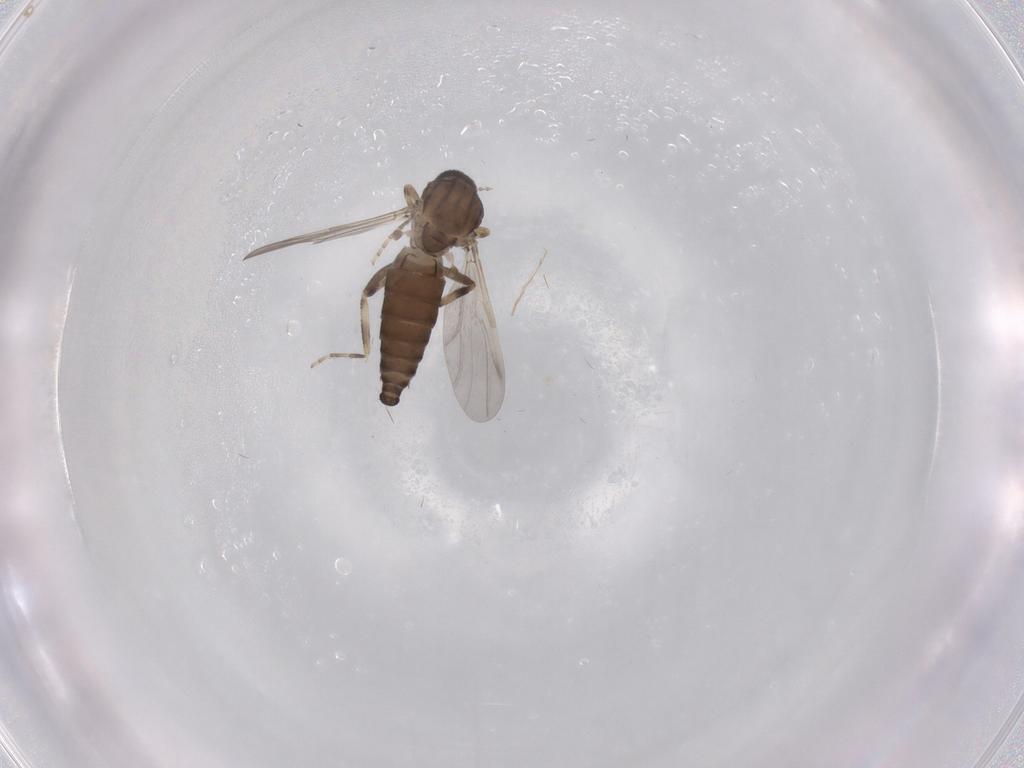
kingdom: Animalia
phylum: Arthropoda
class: Insecta
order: Diptera
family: Ceratopogonidae
